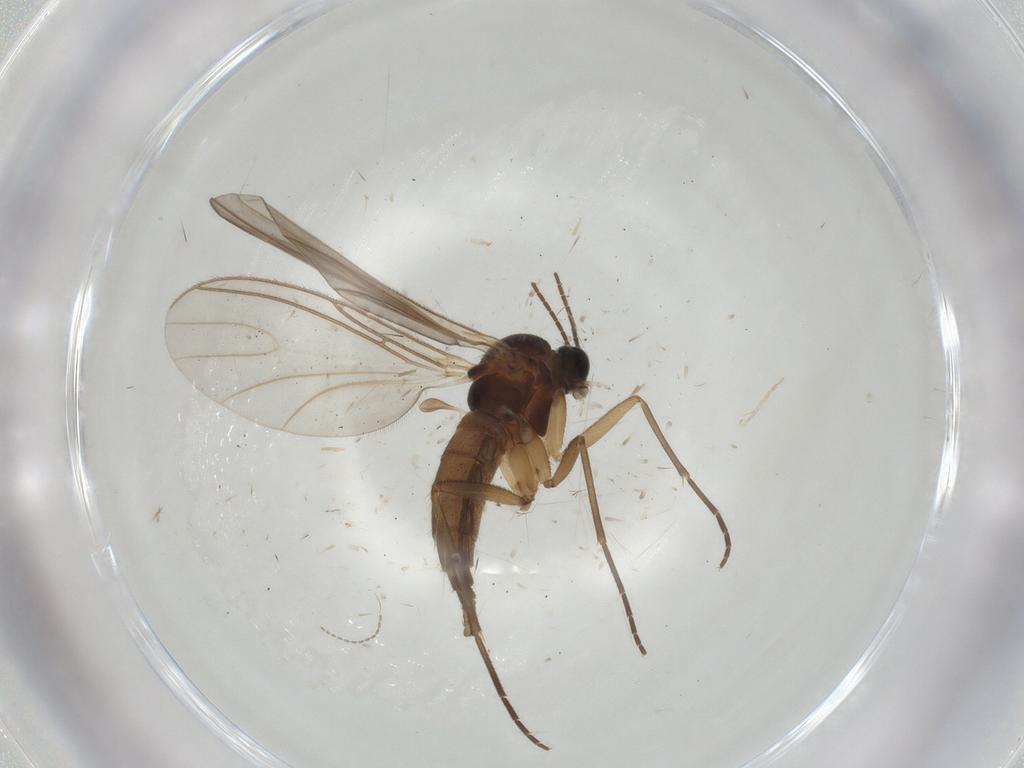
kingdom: Animalia
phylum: Arthropoda
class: Insecta
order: Diptera
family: Sciaridae
